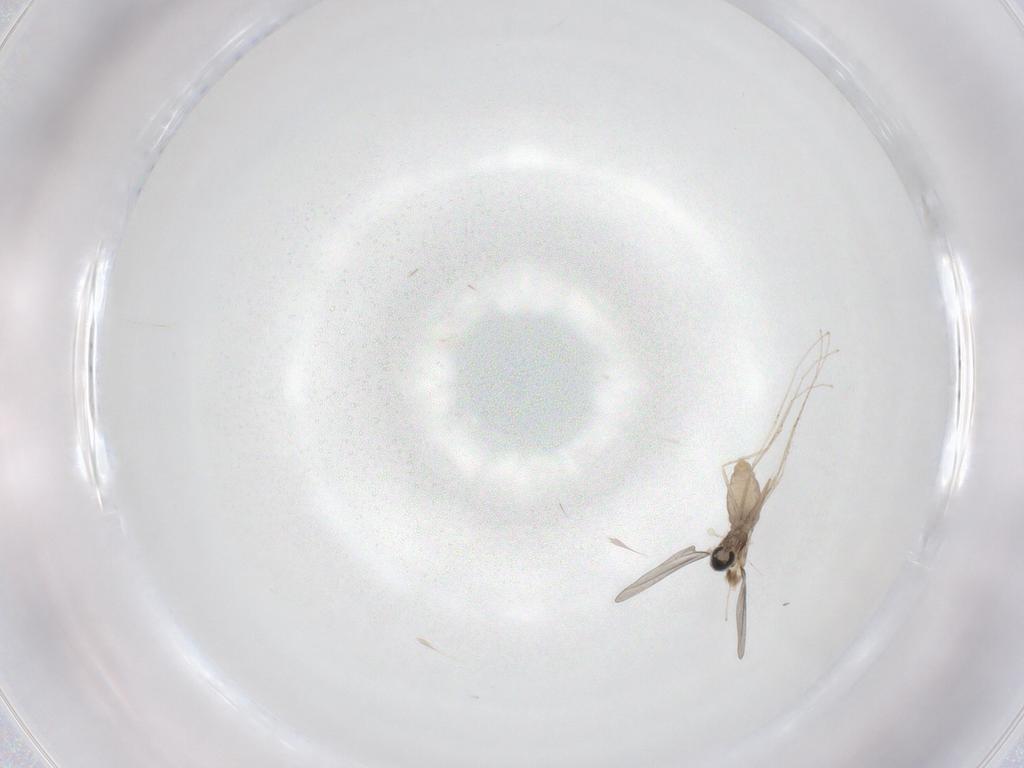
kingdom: Animalia
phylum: Arthropoda
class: Insecta
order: Diptera
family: Phoridae
